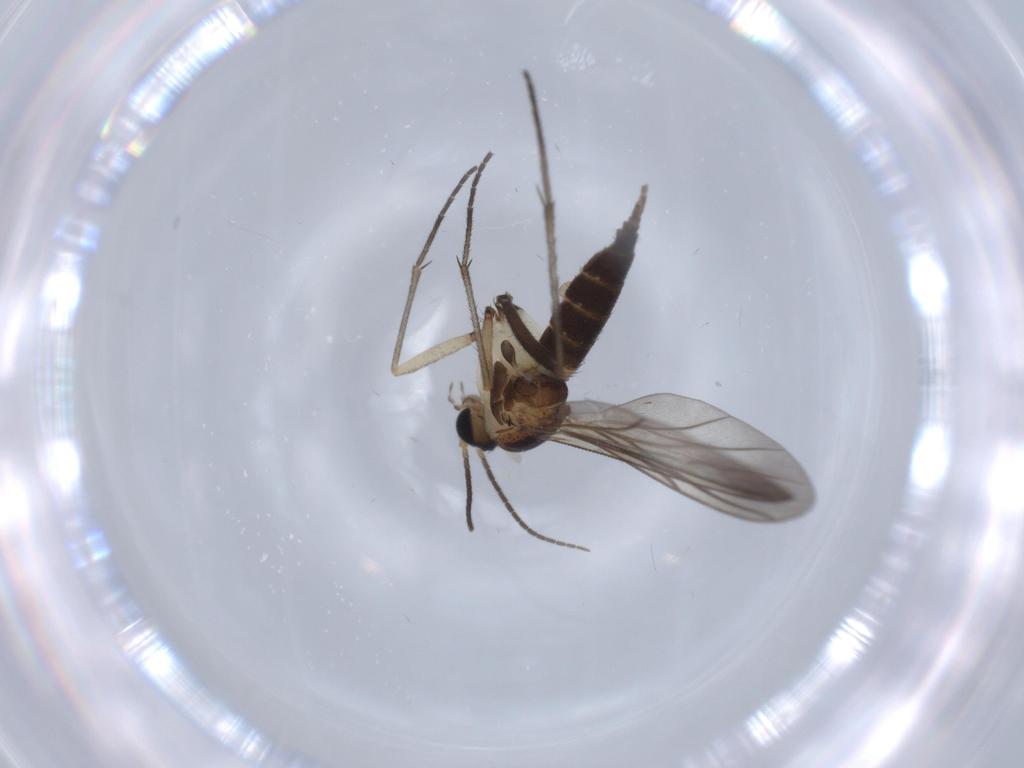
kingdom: Animalia
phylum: Arthropoda
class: Insecta
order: Diptera
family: Sciaridae
